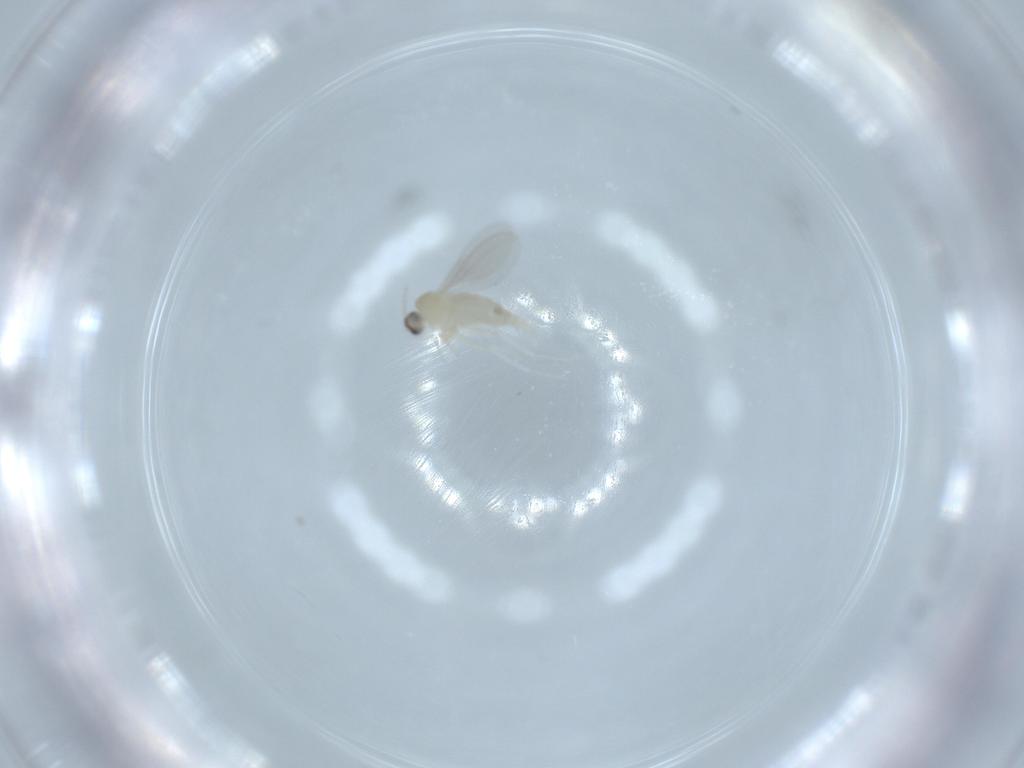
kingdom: Animalia
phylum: Arthropoda
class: Insecta
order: Diptera
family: Cecidomyiidae
